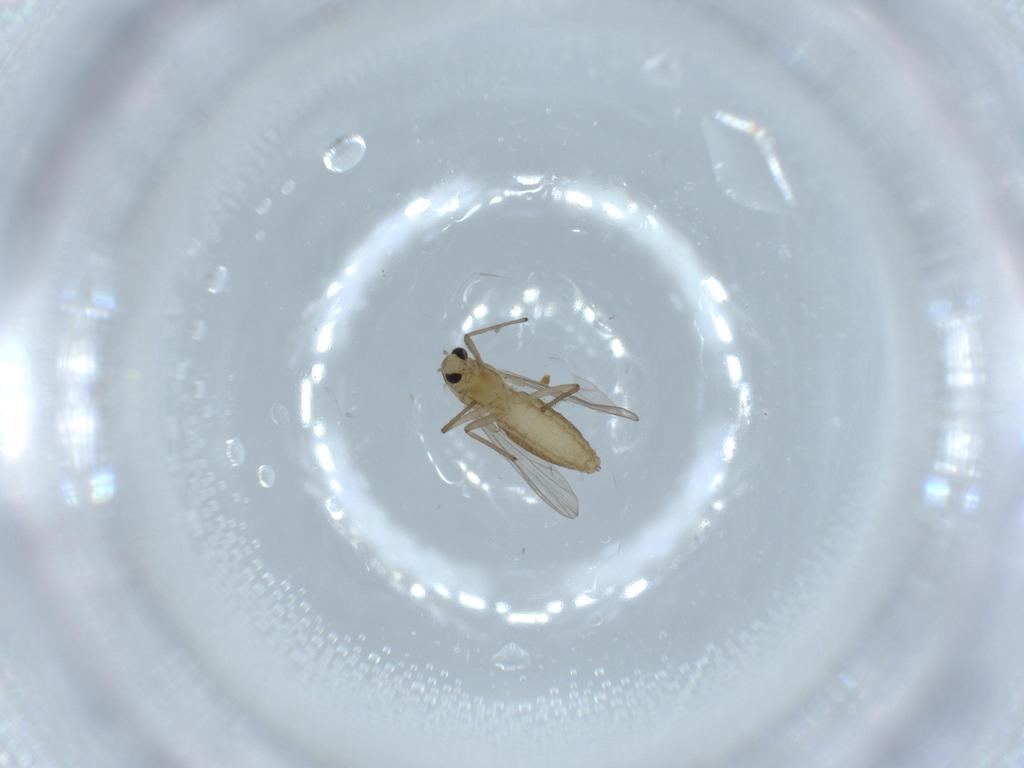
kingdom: Animalia
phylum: Arthropoda
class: Insecta
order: Diptera
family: Chironomidae
